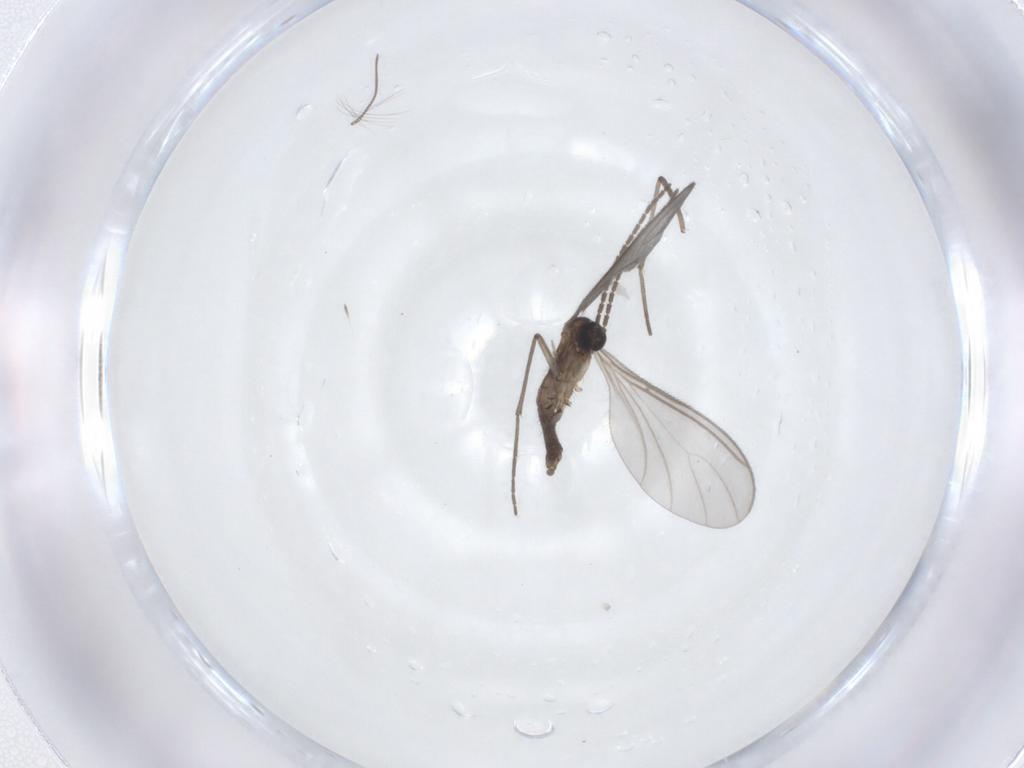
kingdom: Animalia
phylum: Arthropoda
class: Insecta
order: Diptera
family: Sciaridae
